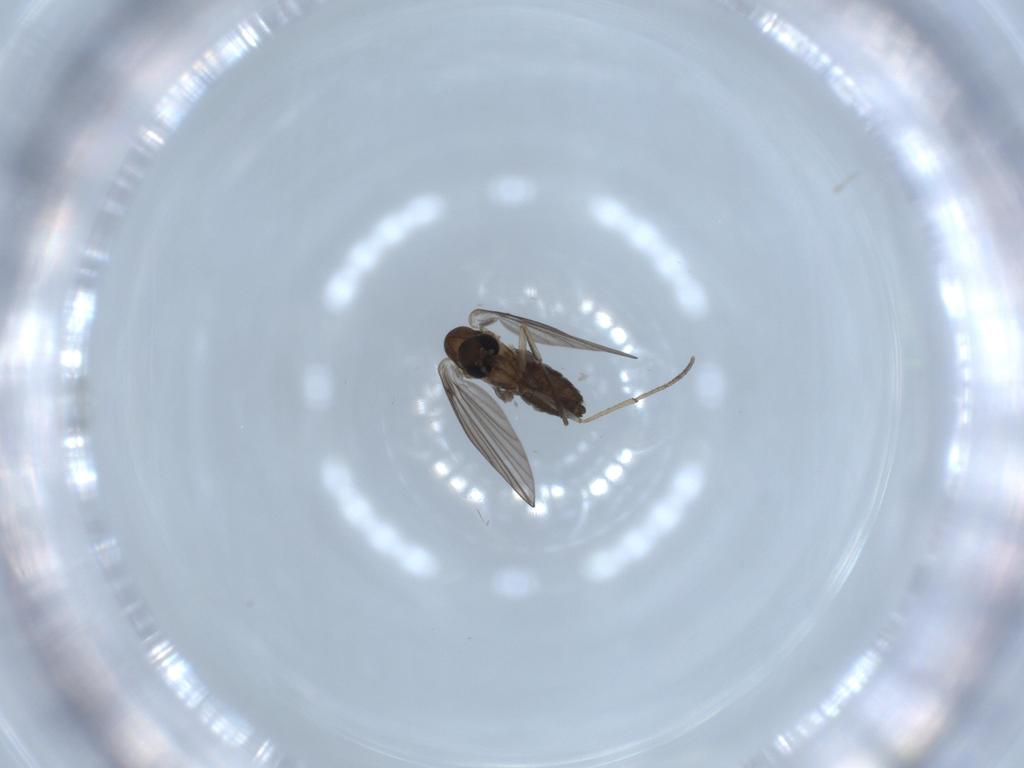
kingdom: Animalia
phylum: Arthropoda
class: Insecta
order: Diptera
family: Psychodidae
